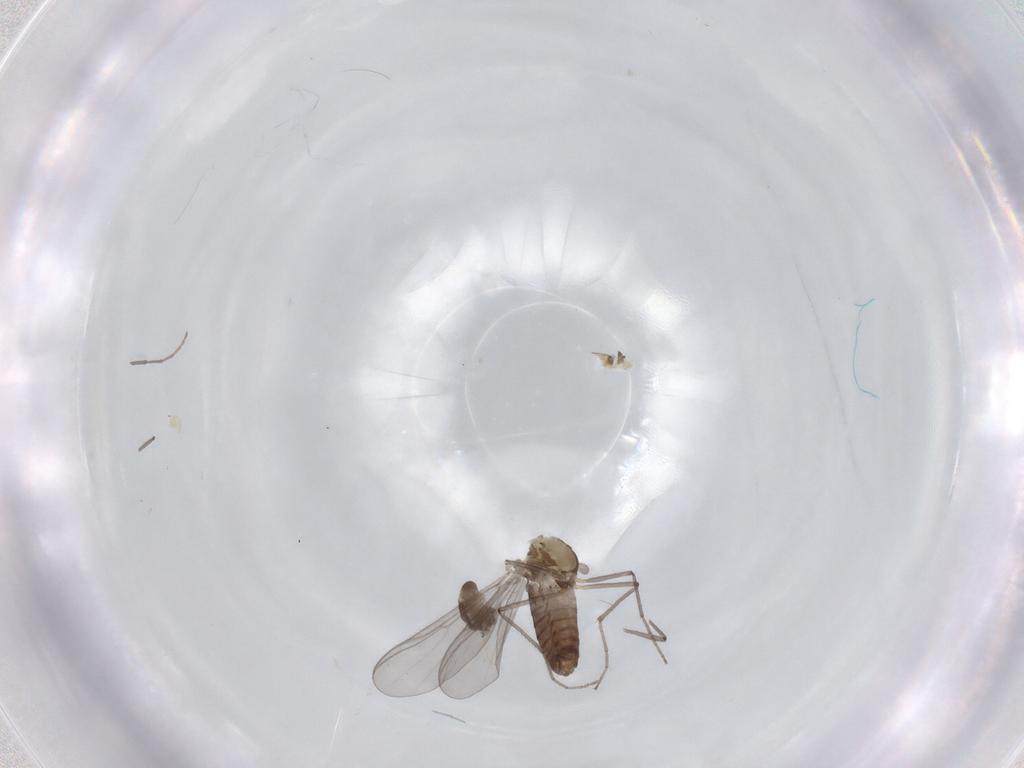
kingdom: Animalia
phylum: Arthropoda
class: Insecta
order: Diptera
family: Chironomidae
